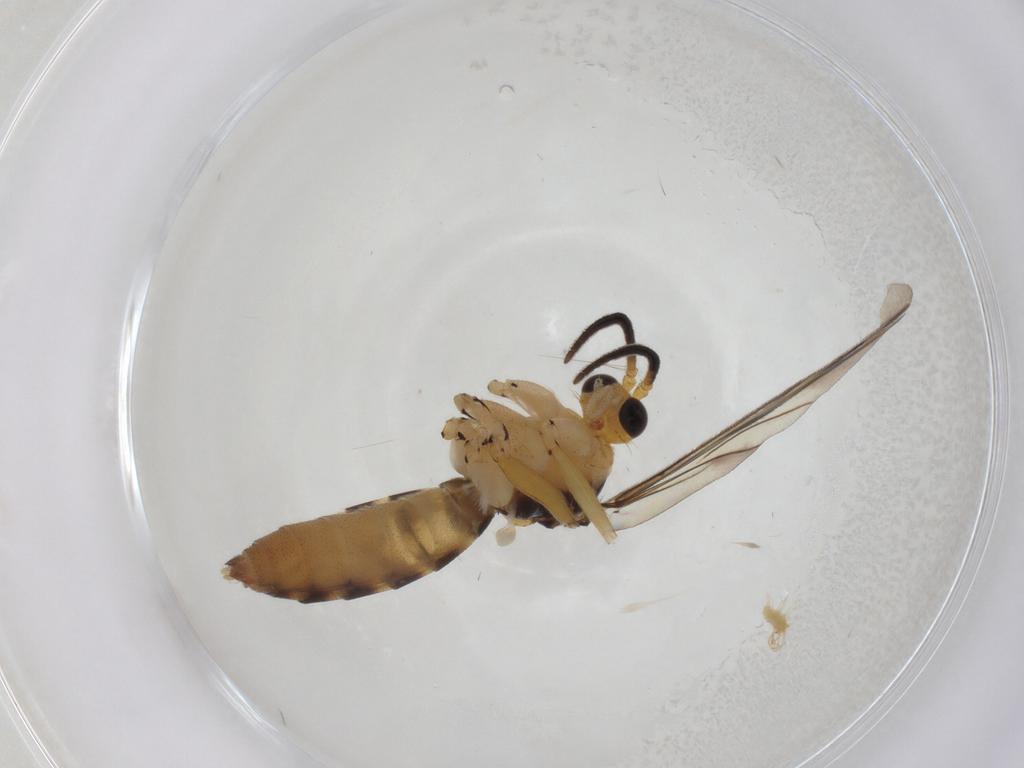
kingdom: Animalia
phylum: Arthropoda
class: Insecta
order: Diptera
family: Mycetophilidae
